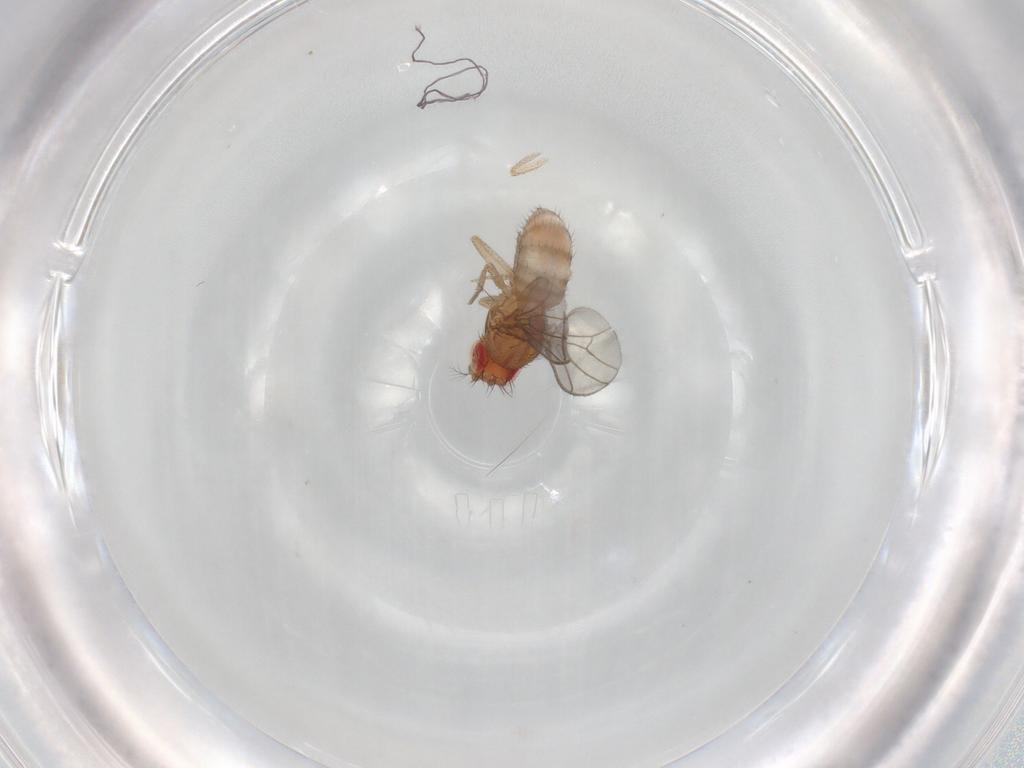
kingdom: Animalia
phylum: Arthropoda
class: Insecta
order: Diptera
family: Drosophilidae
